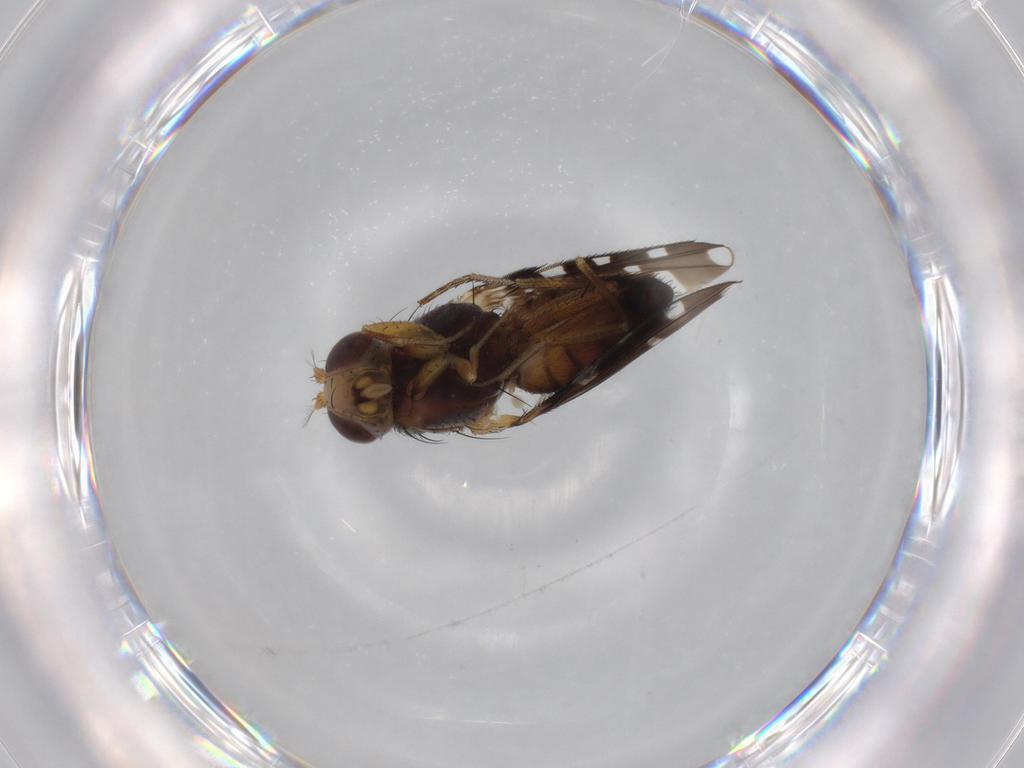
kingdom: Animalia
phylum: Arthropoda
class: Insecta
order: Diptera
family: Ephydridae
